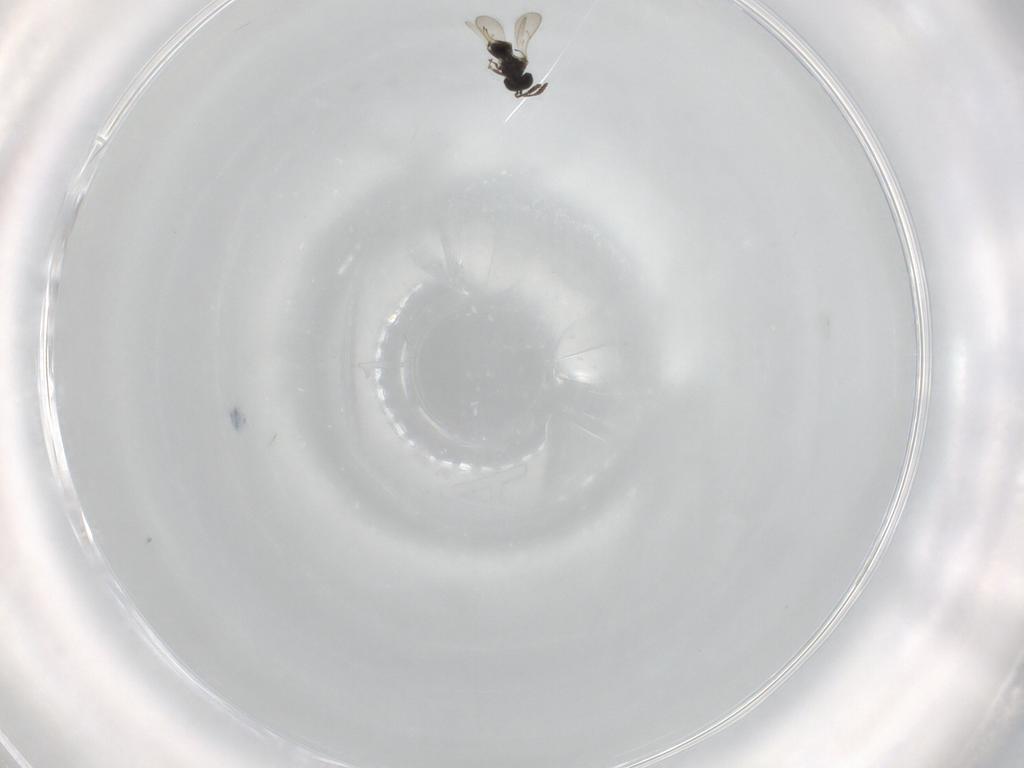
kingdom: Animalia
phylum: Arthropoda
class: Insecta
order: Hymenoptera
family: Scelionidae
